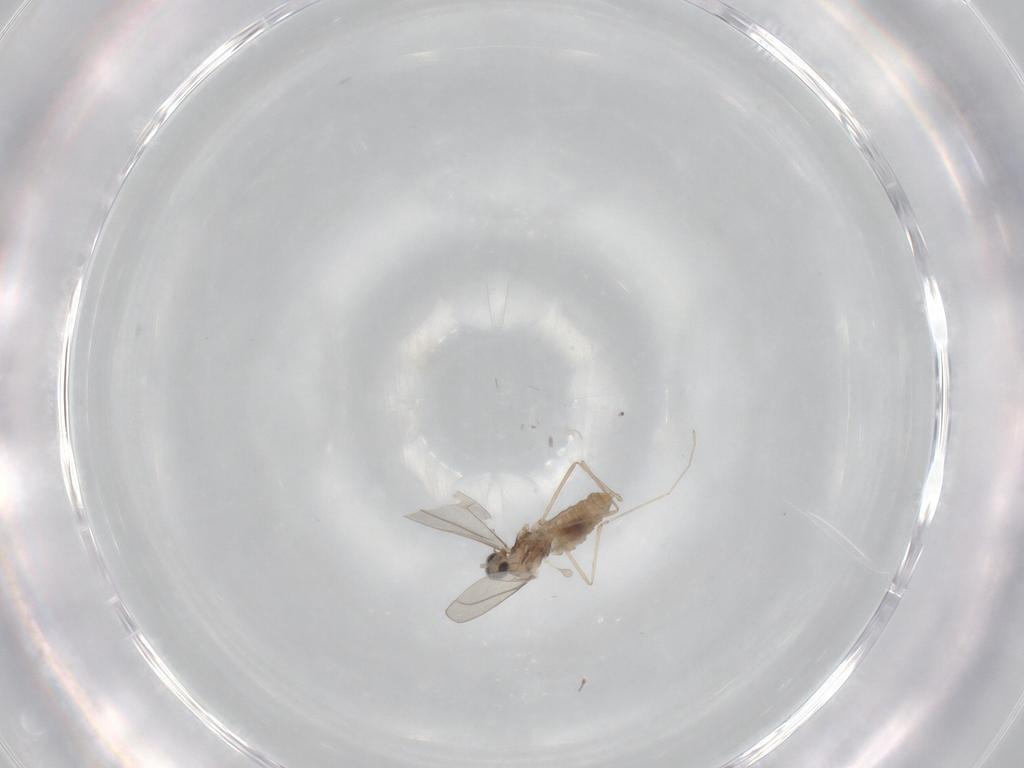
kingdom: Animalia
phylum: Arthropoda
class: Insecta
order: Diptera
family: Cecidomyiidae
